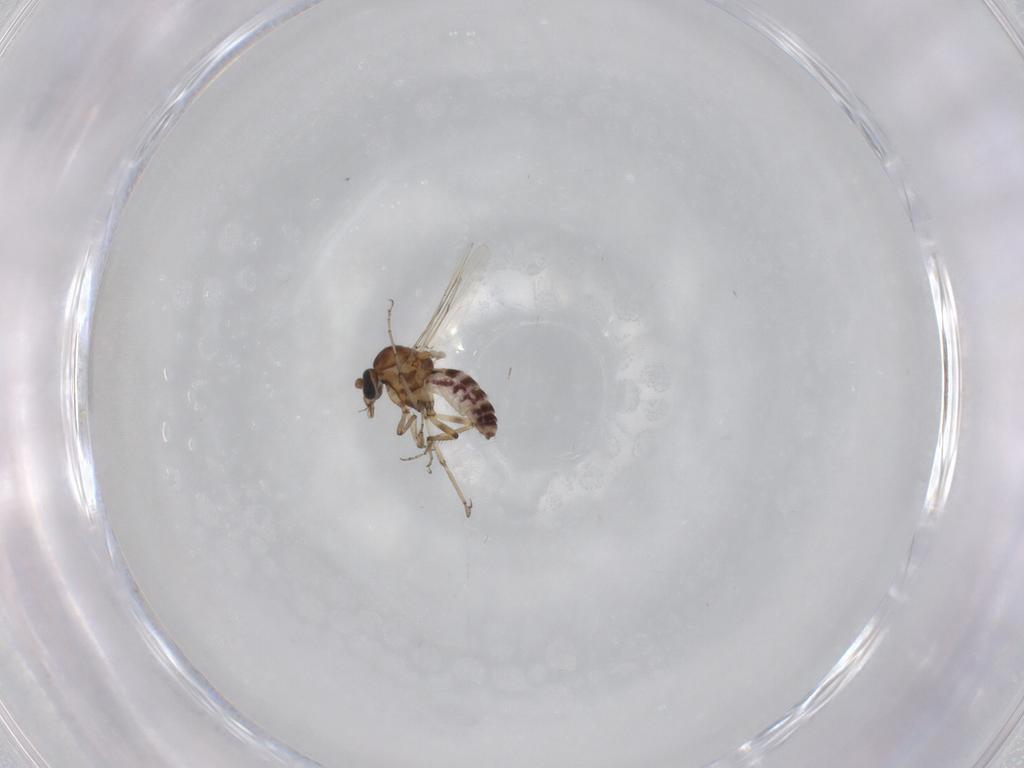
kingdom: Animalia
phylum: Arthropoda
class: Insecta
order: Diptera
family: Ceratopogonidae
